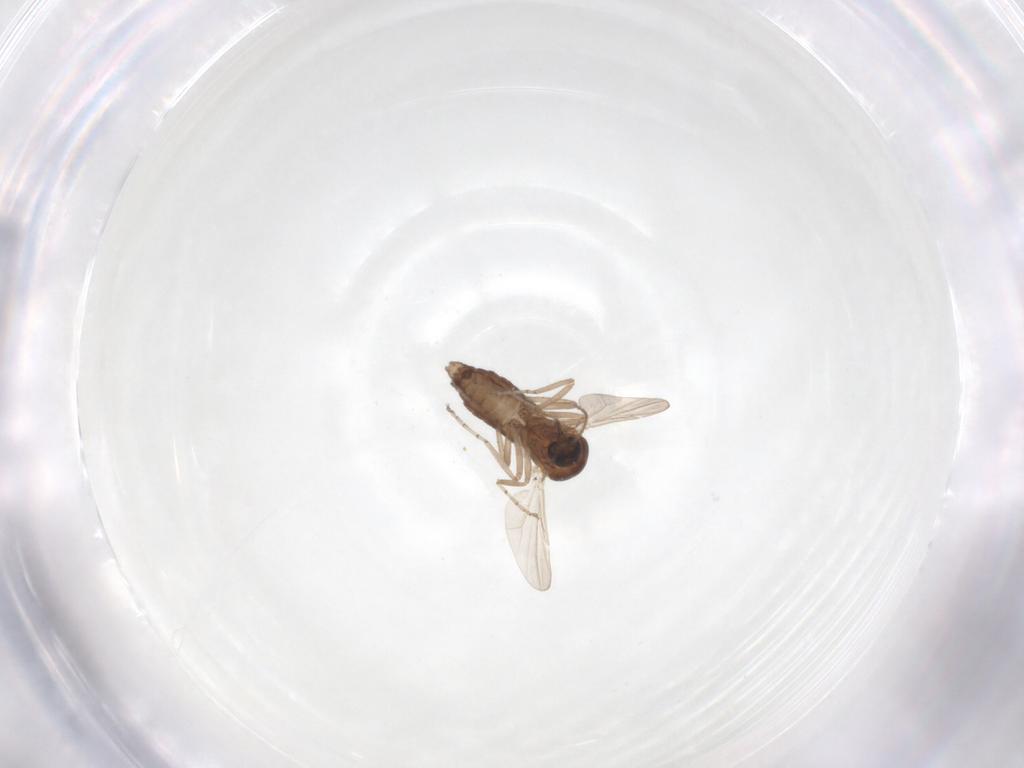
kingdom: Animalia
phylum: Arthropoda
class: Insecta
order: Diptera
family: Ceratopogonidae
